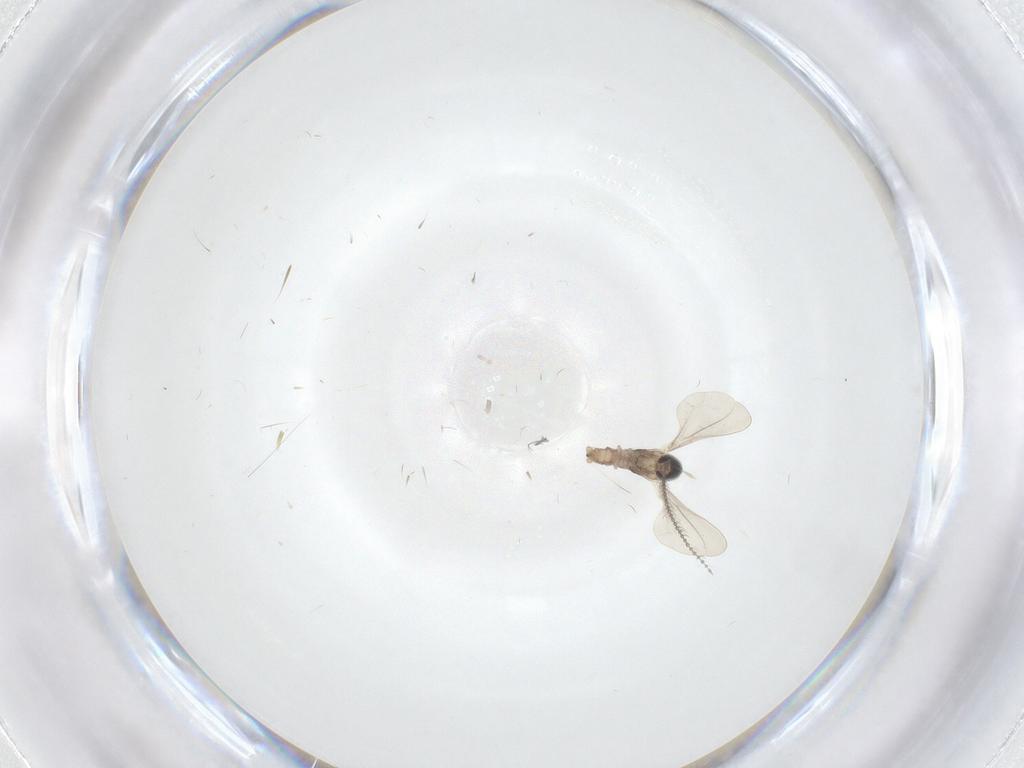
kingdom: Animalia
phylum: Arthropoda
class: Insecta
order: Diptera
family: Cecidomyiidae
